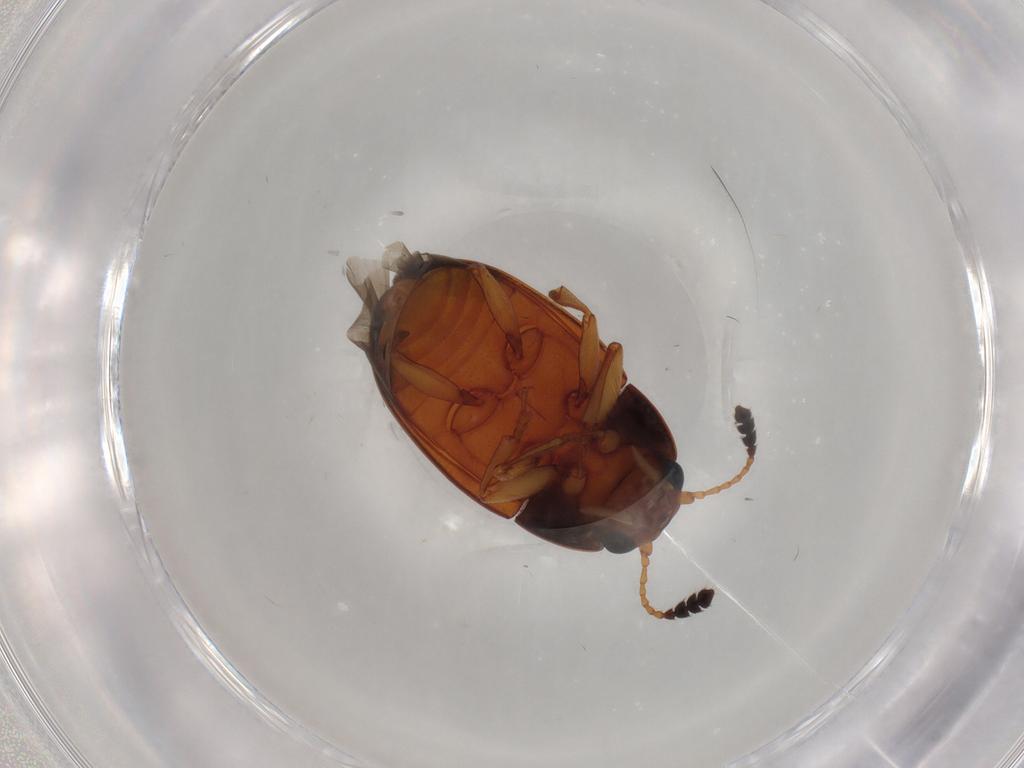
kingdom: Animalia
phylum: Arthropoda
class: Insecta
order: Coleoptera
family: Erotylidae
